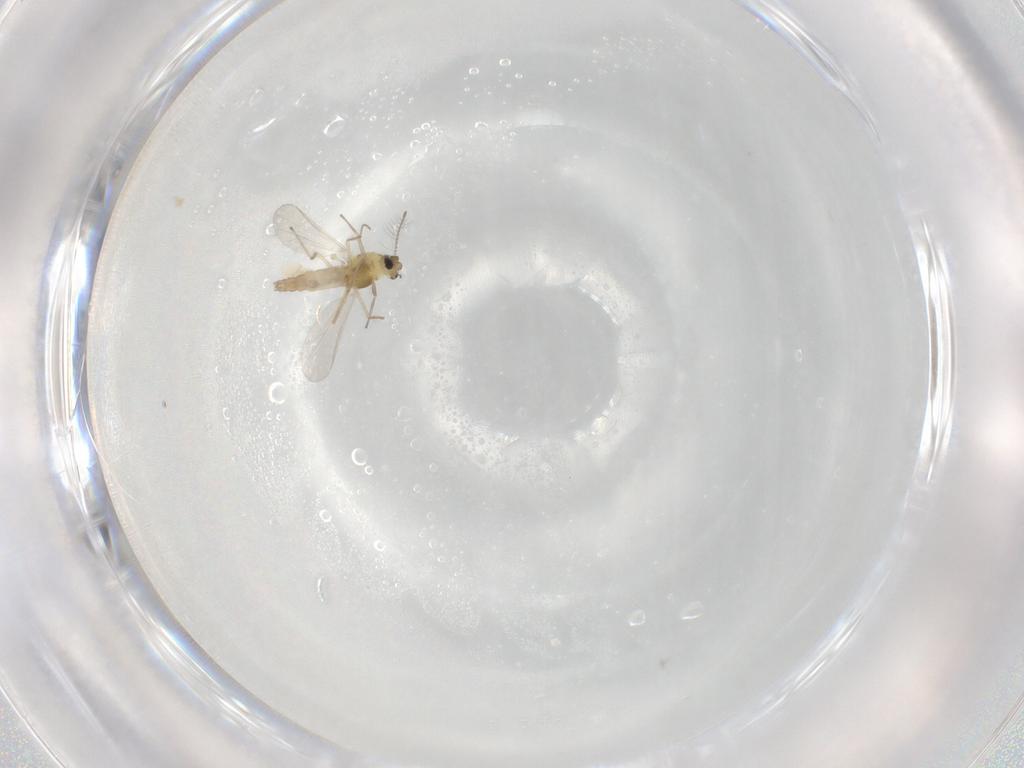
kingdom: Animalia
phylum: Arthropoda
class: Insecta
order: Diptera
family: Chironomidae
